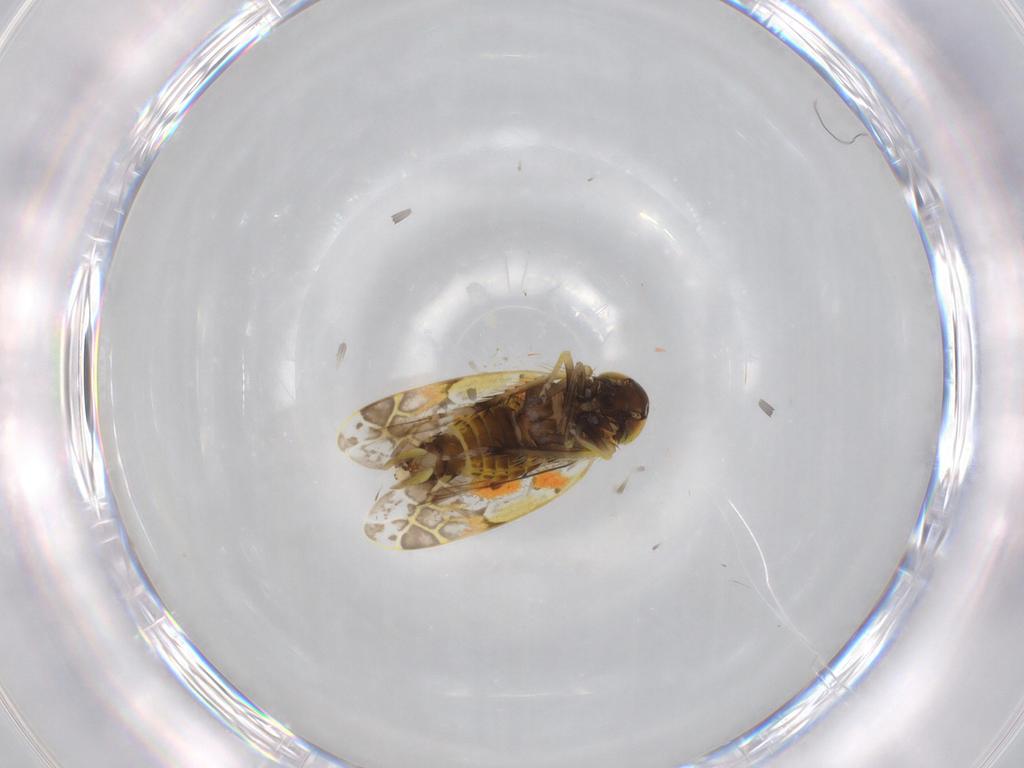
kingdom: Animalia
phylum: Arthropoda
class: Insecta
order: Hemiptera
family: Cicadellidae
